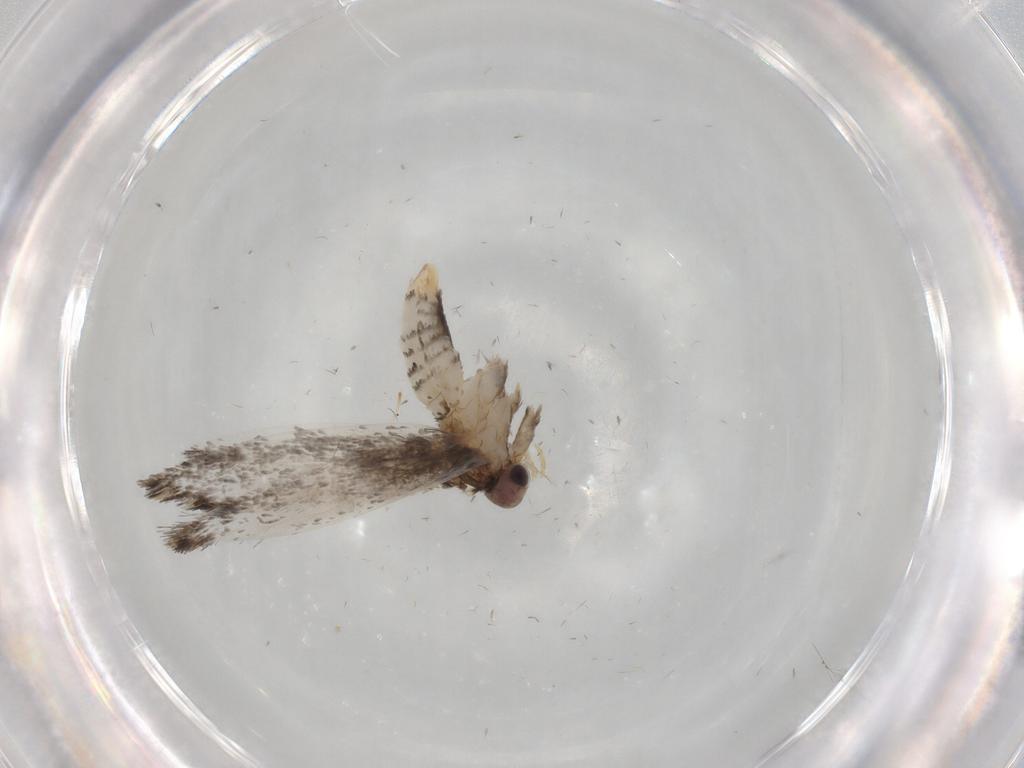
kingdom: Animalia
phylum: Arthropoda
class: Insecta
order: Lepidoptera
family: Tineidae
